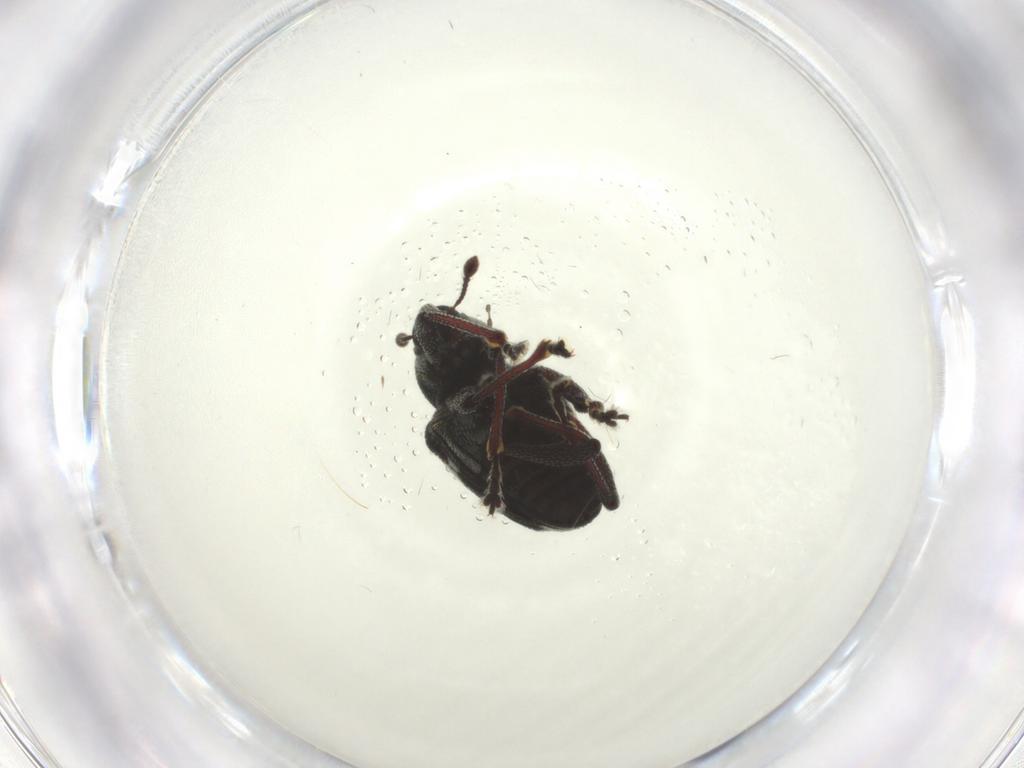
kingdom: Animalia
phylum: Arthropoda
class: Insecta
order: Coleoptera
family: Curculionidae
